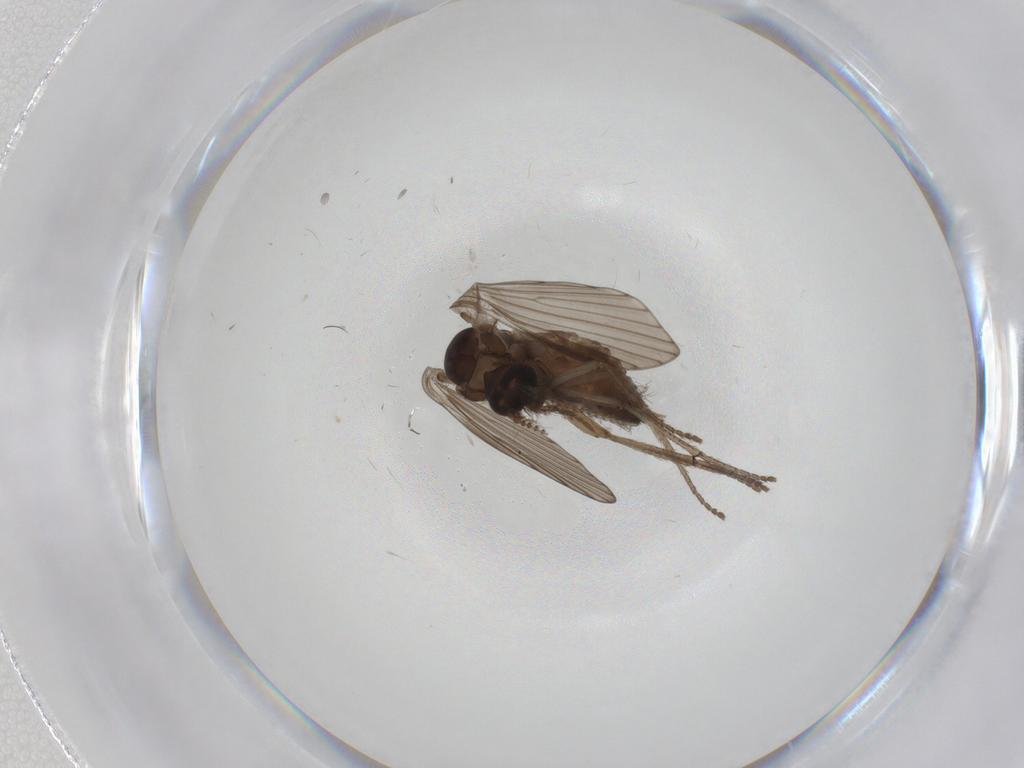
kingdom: Animalia
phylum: Arthropoda
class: Insecta
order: Diptera
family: Psychodidae
